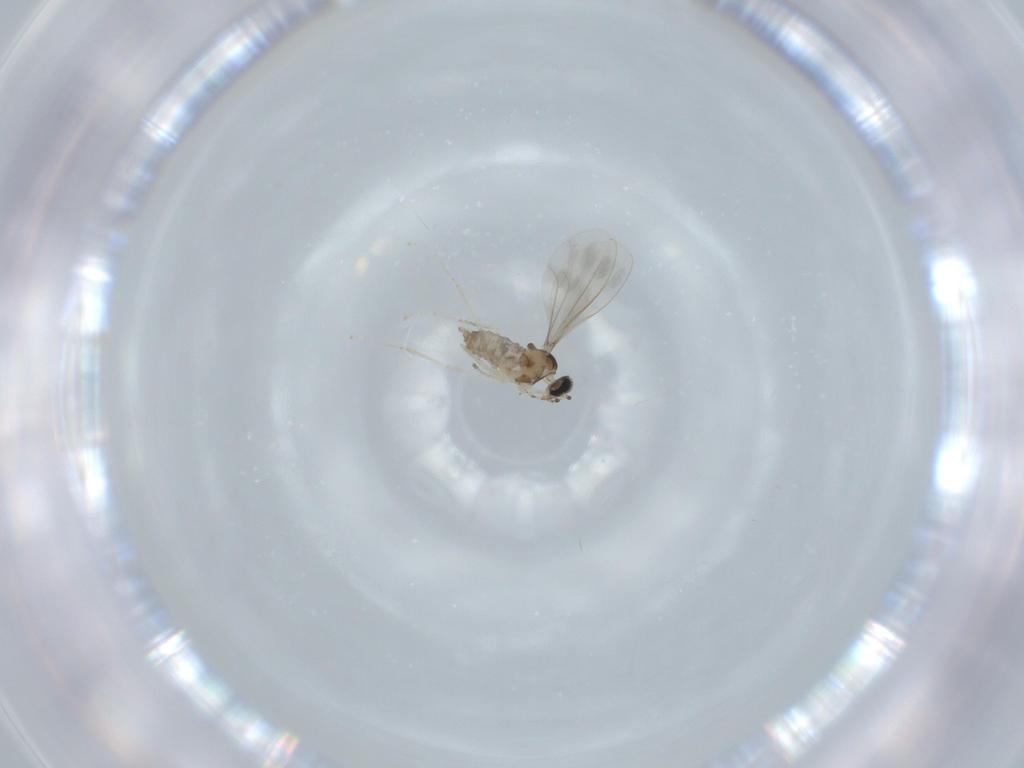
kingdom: Animalia
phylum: Arthropoda
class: Insecta
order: Diptera
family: Cecidomyiidae
